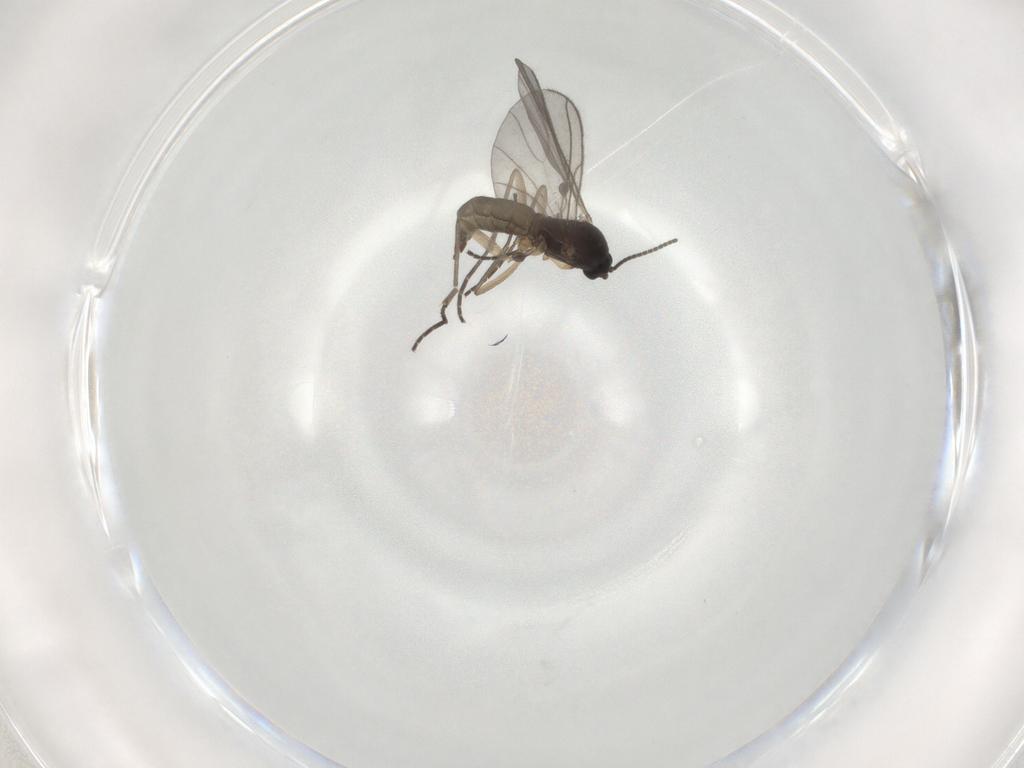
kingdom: Animalia
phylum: Arthropoda
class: Insecta
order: Diptera
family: Sciaridae
